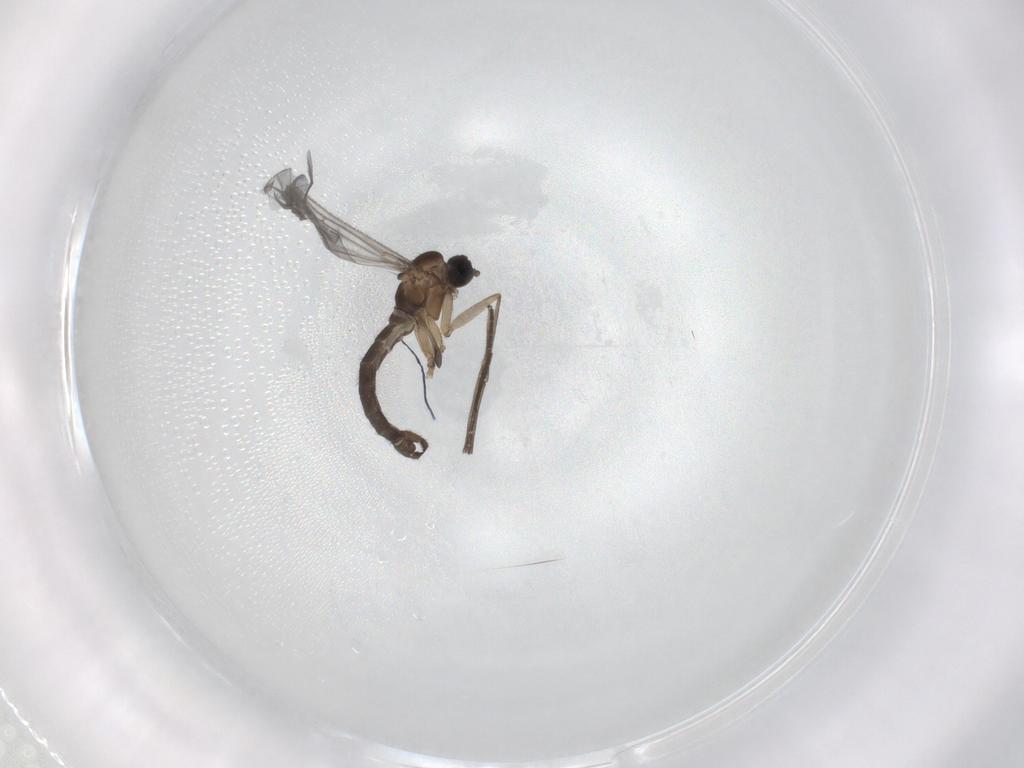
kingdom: Animalia
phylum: Arthropoda
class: Insecta
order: Diptera
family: Sciaridae
